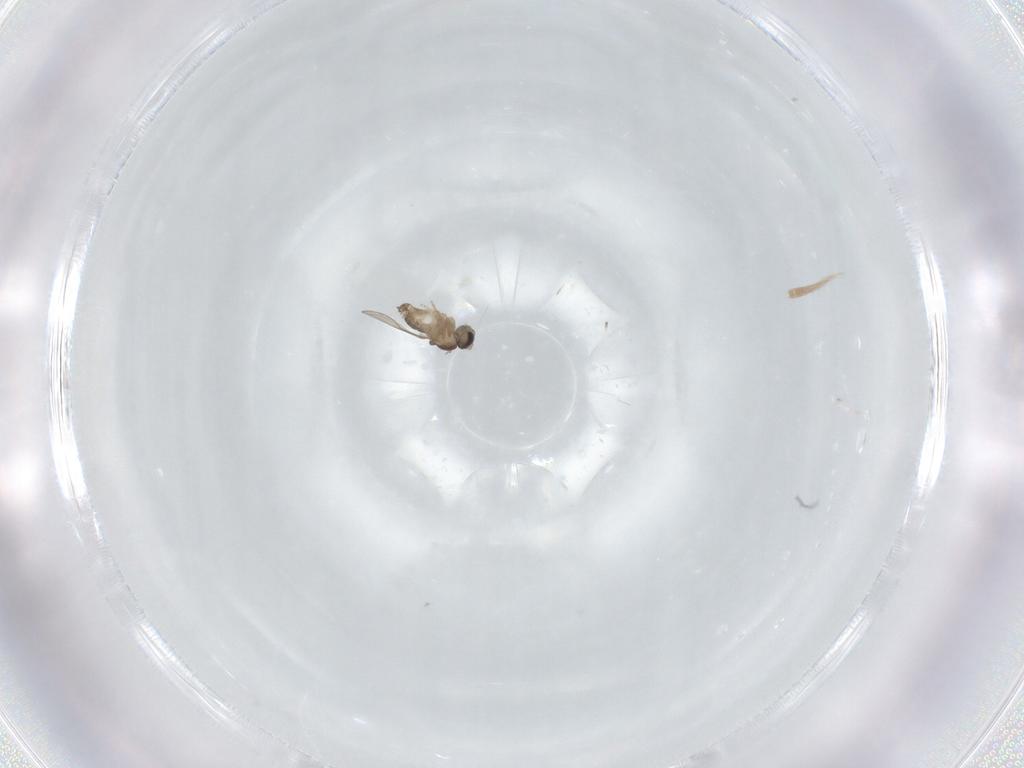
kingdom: Animalia
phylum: Arthropoda
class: Insecta
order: Diptera
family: Cecidomyiidae
